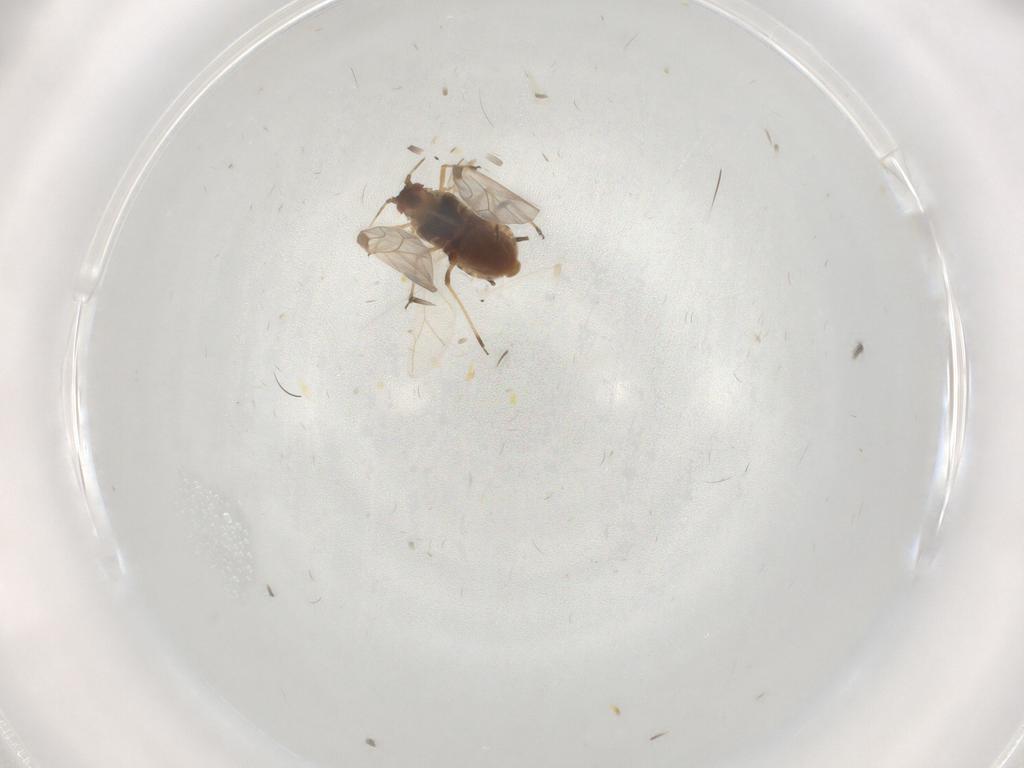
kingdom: Animalia
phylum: Arthropoda
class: Insecta
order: Hemiptera
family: Aphididae
